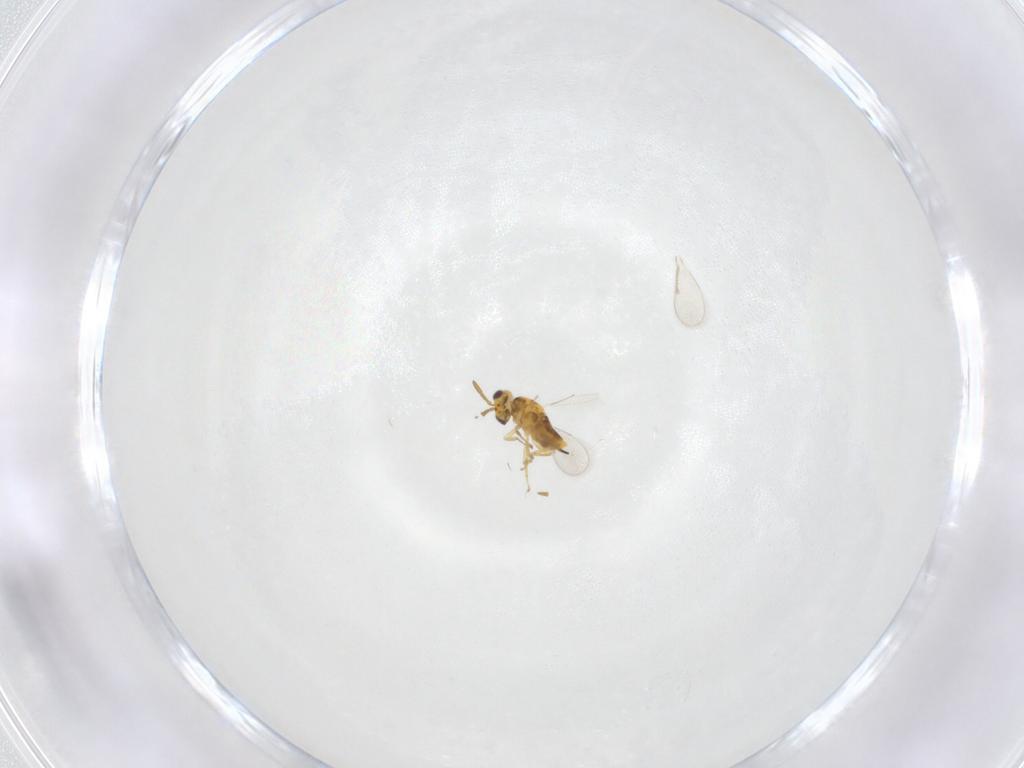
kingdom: Animalia
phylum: Arthropoda
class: Insecta
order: Hymenoptera
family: Aphelinidae
